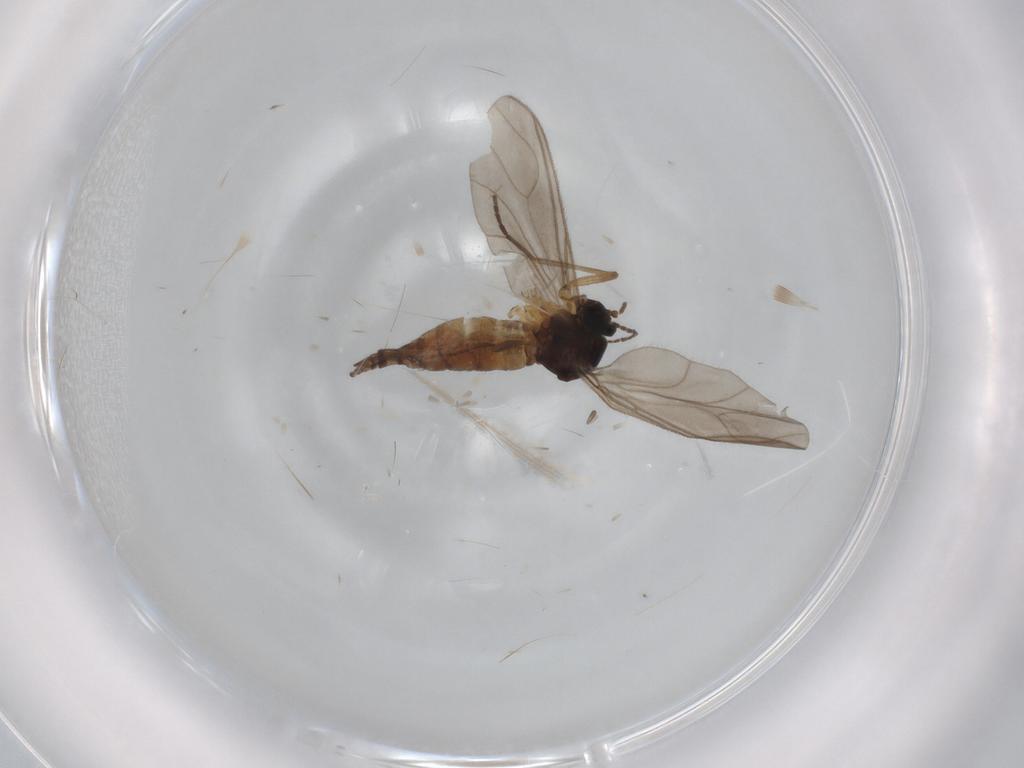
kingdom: Animalia
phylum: Arthropoda
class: Insecta
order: Diptera
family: Sciaridae
